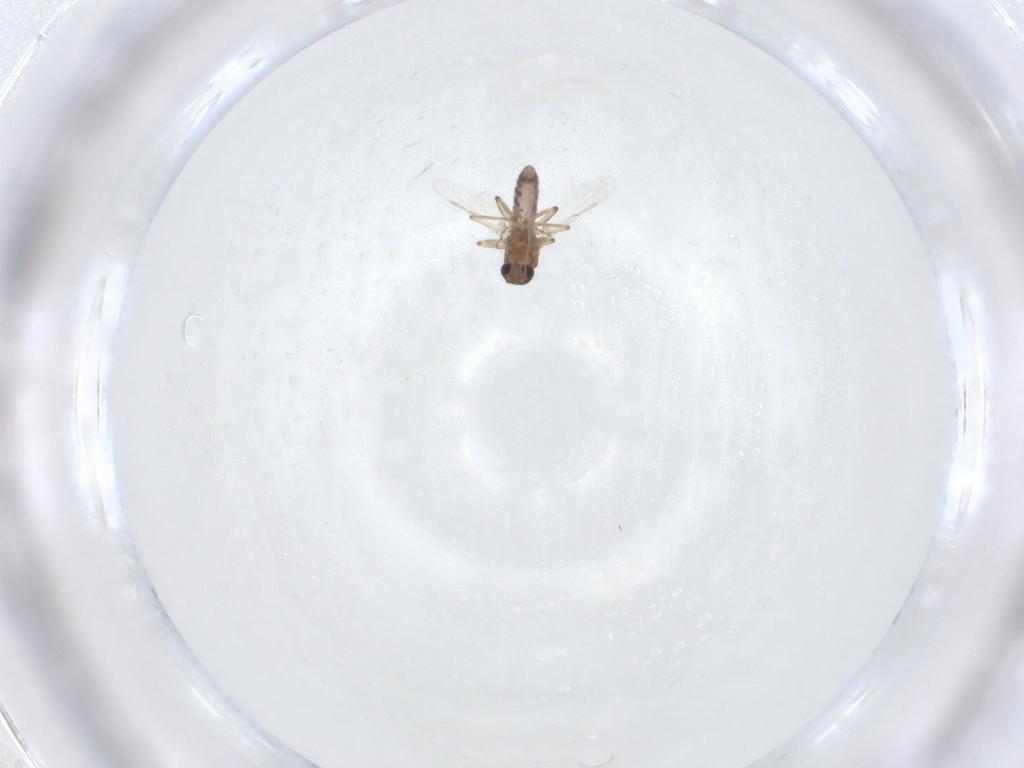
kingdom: Animalia
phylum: Arthropoda
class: Insecta
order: Diptera
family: Ceratopogonidae
